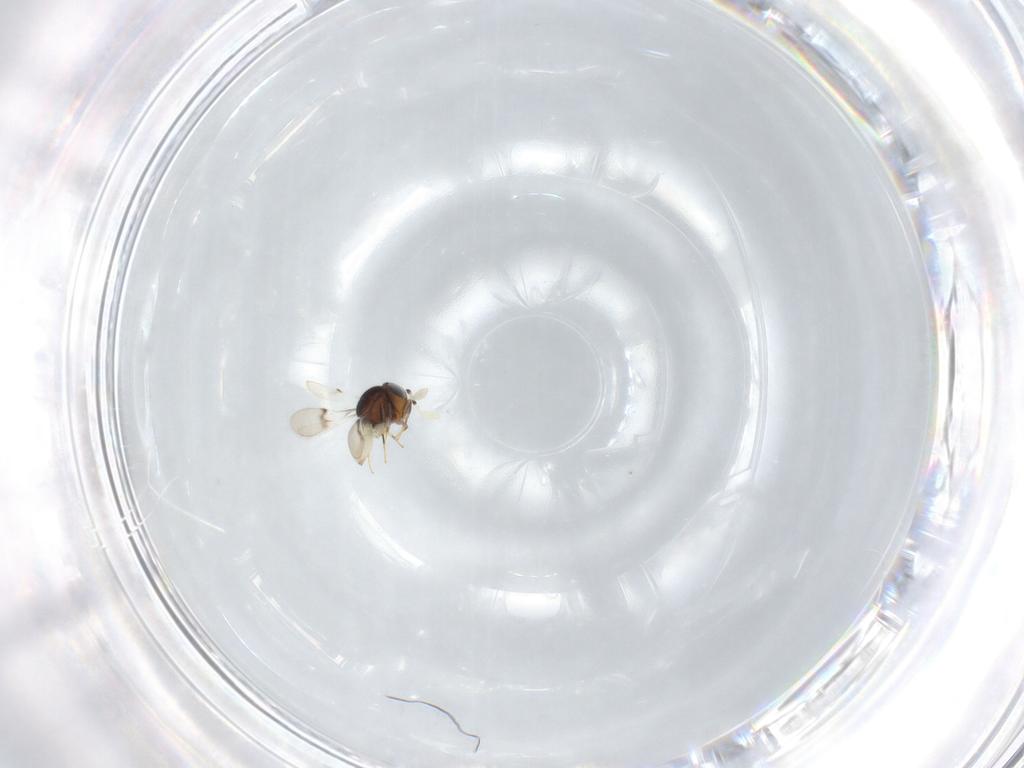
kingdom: Animalia
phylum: Arthropoda
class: Insecta
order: Hymenoptera
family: Scelionidae
